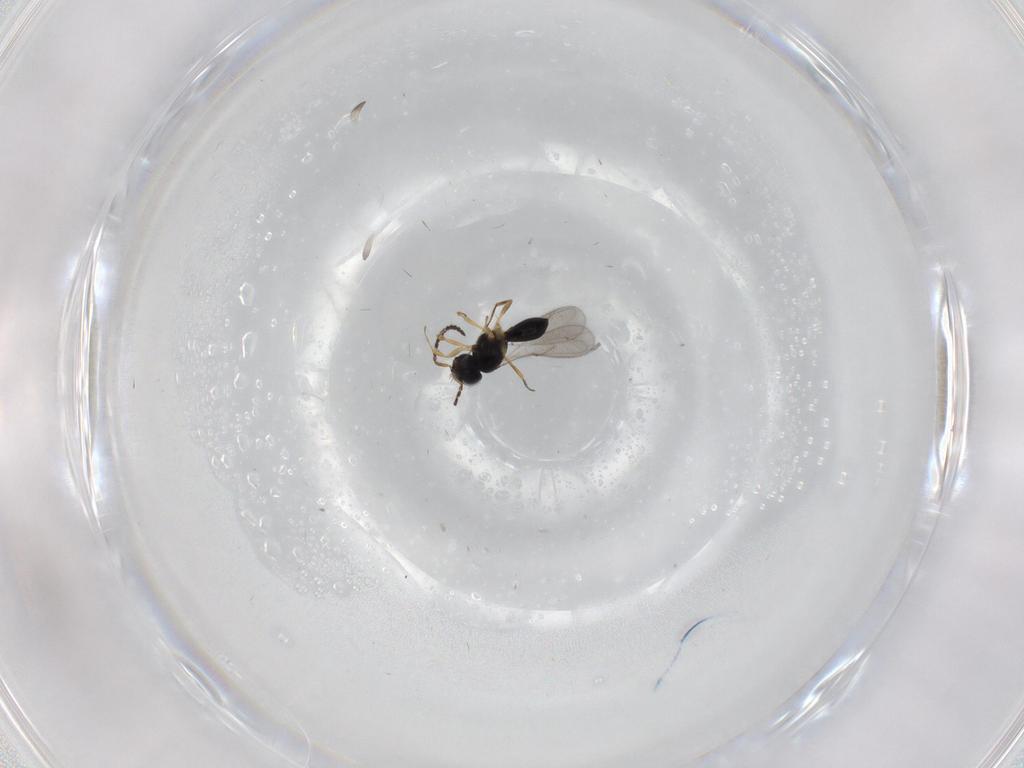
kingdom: Animalia
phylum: Arthropoda
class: Insecta
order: Hymenoptera
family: Scelionidae
